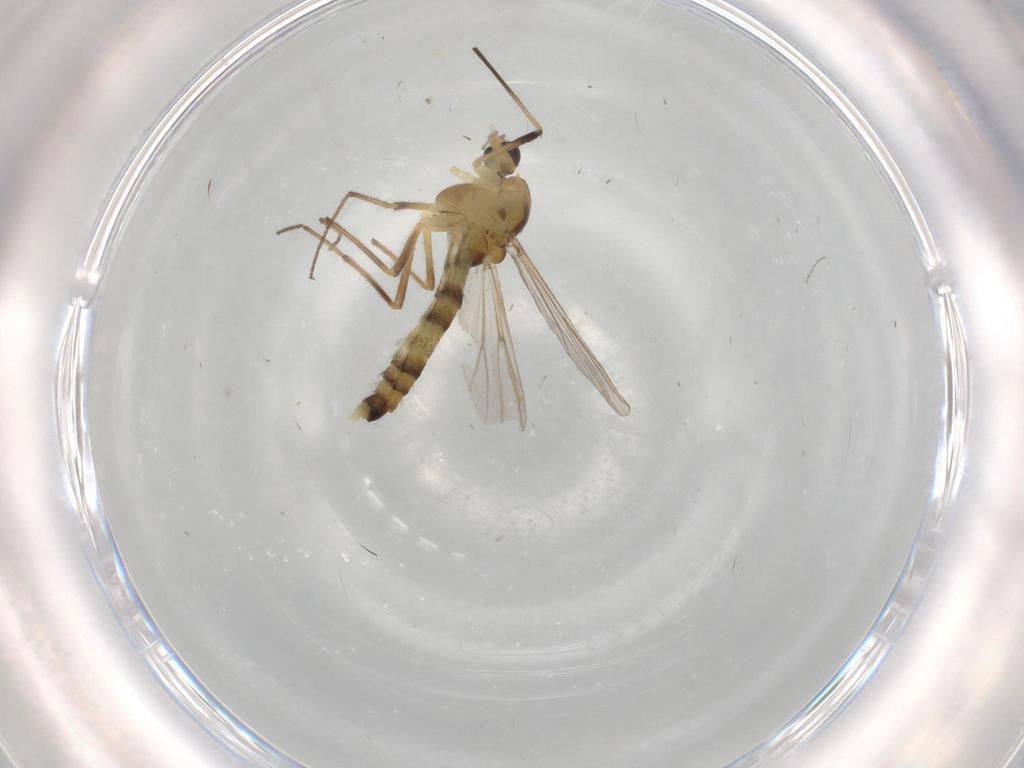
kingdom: Animalia
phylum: Arthropoda
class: Insecta
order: Diptera
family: Chironomidae
